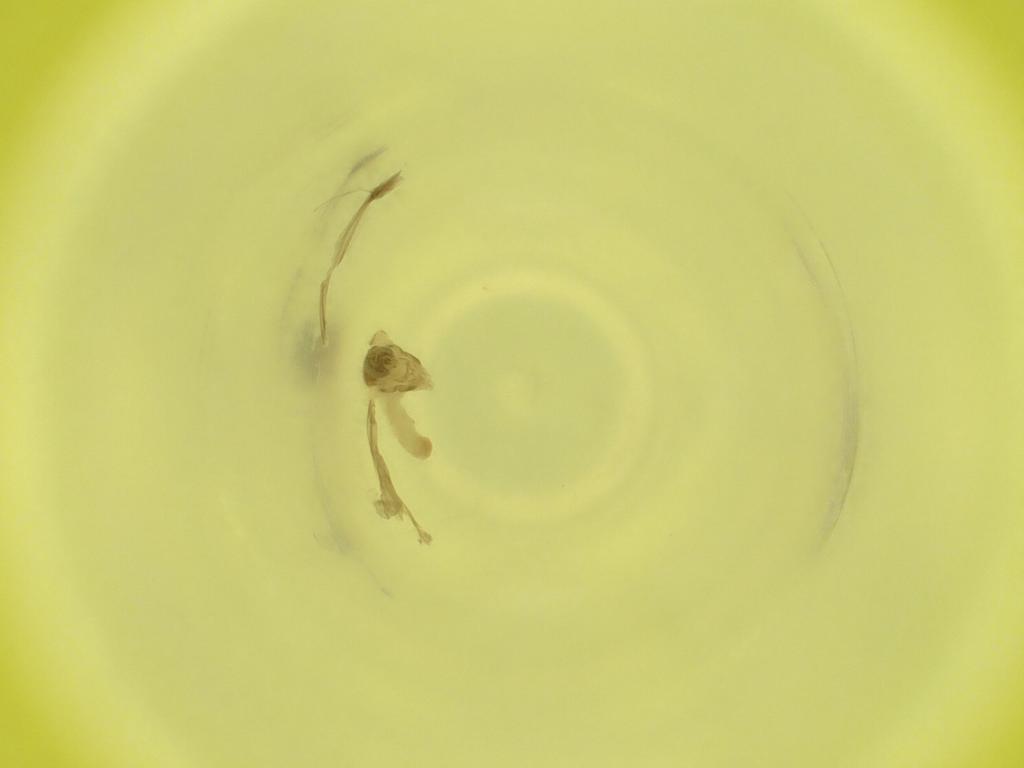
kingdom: Animalia
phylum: Arthropoda
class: Insecta
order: Diptera
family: Cecidomyiidae
